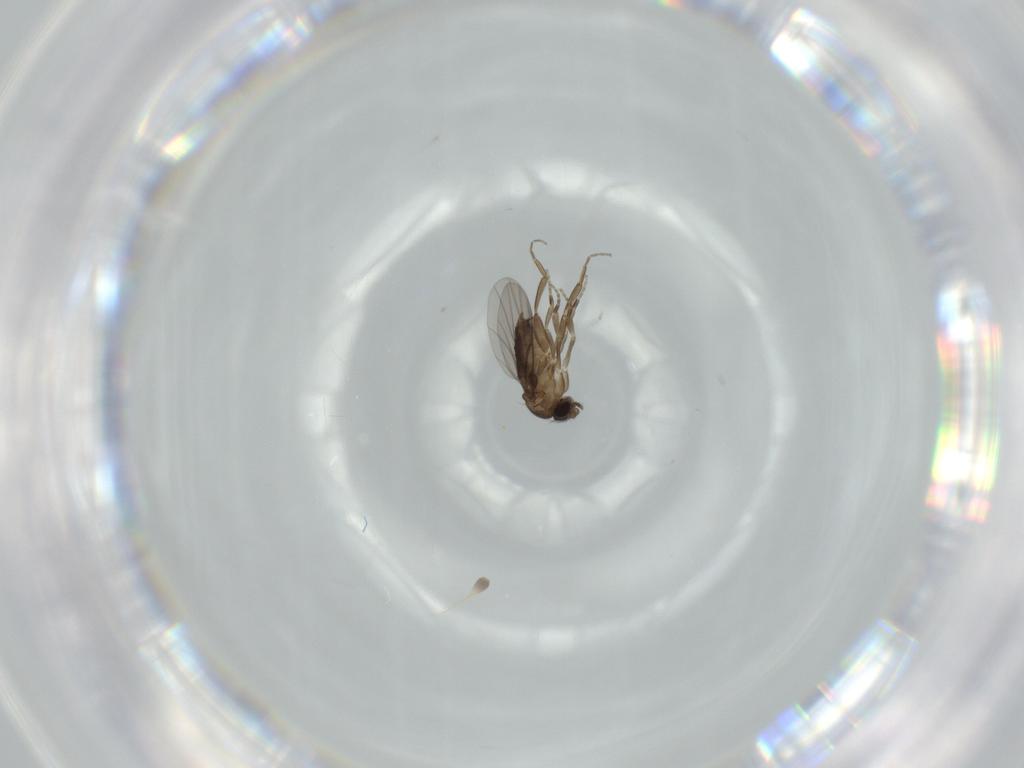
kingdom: Animalia
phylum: Arthropoda
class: Insecta
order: Diptera
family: Phoridae
